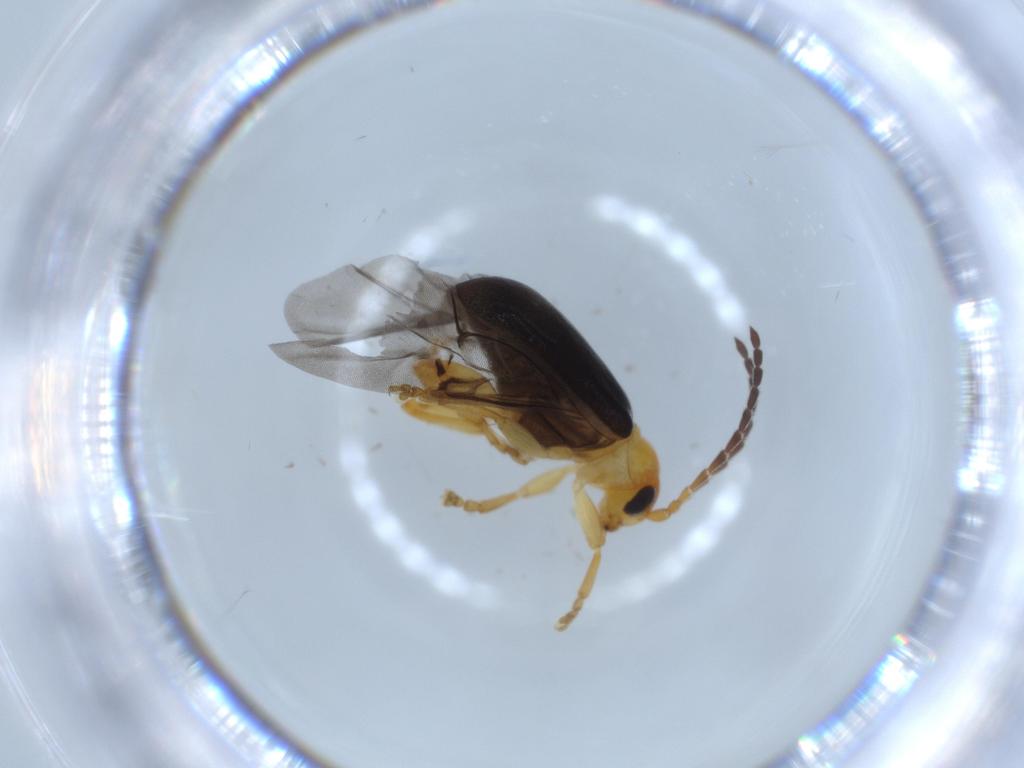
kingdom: Animalia
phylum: Arthropoda
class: Insecta
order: Coleoptera
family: Chrysomelidae
